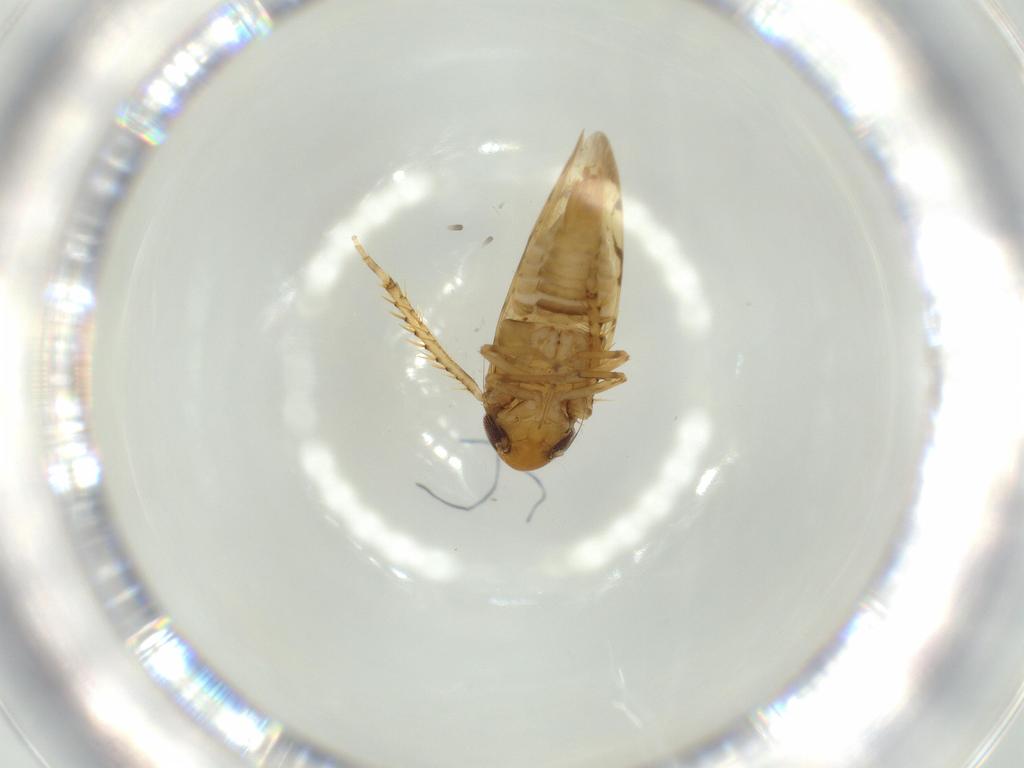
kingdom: Animalia
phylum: Arthropoda
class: Insecta
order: Hemiptera
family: Cicadellidae
